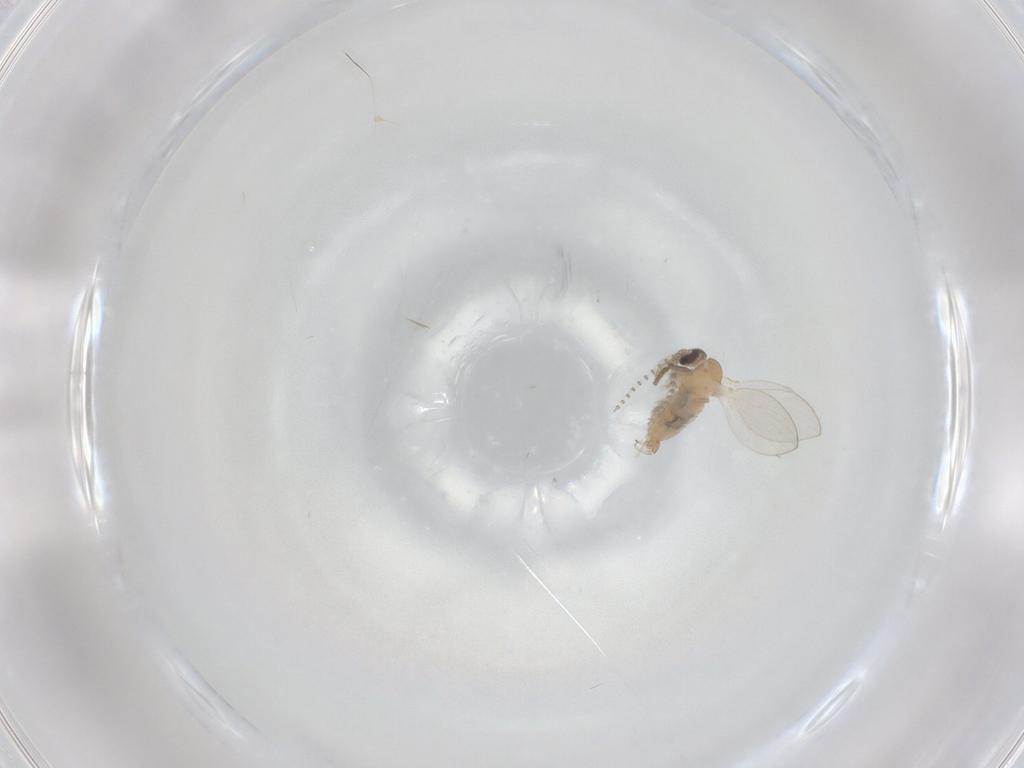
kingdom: Animalia
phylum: Arthropoda
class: Insecta
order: Diptera
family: Psychodidae
